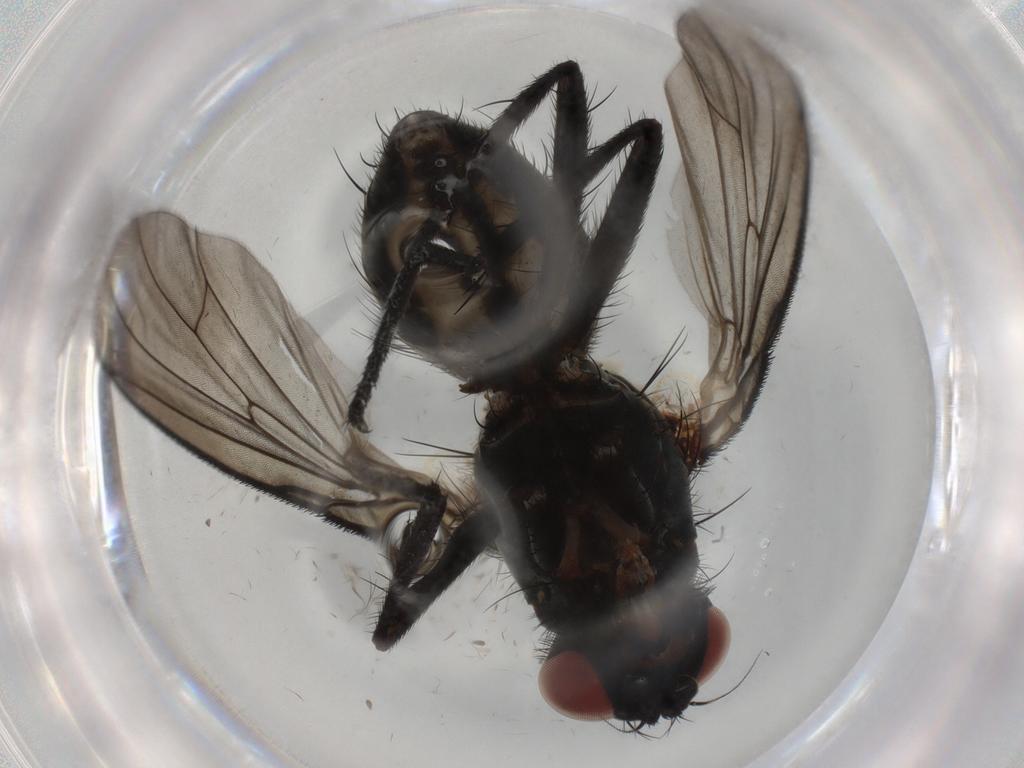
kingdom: Animalia
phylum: Arthropoda
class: Insecta
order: Diptera
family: Anthomyiidae
